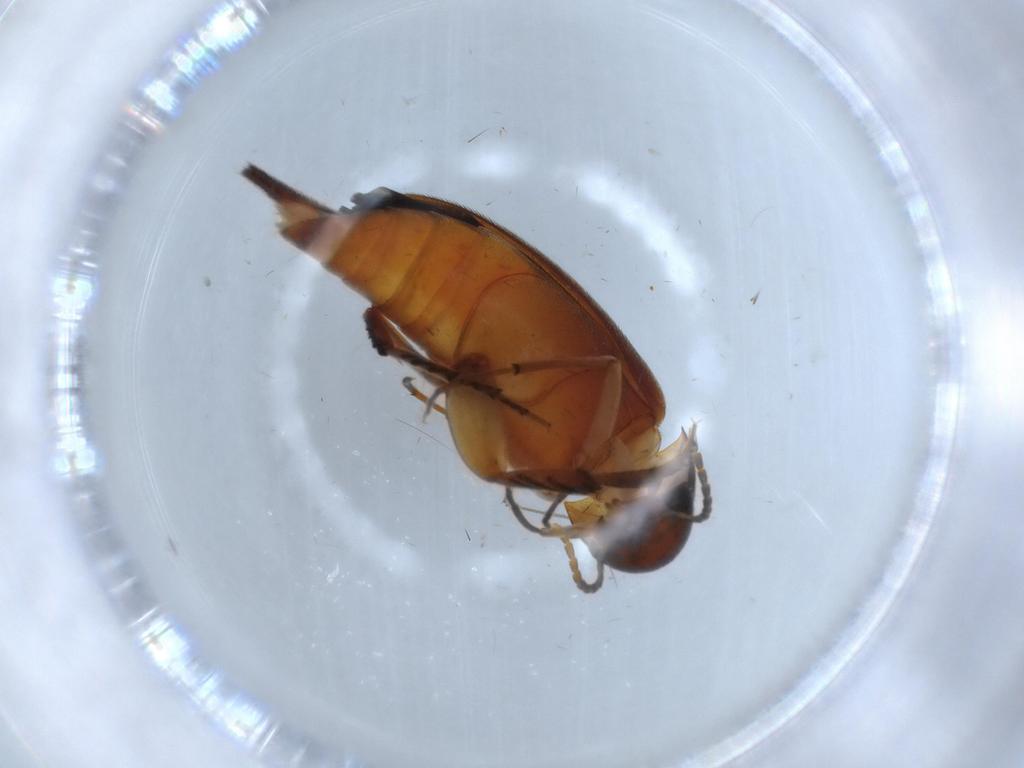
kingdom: Animalia
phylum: Arthropoda
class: Insecta
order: Coleoptera
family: Mordellidae
